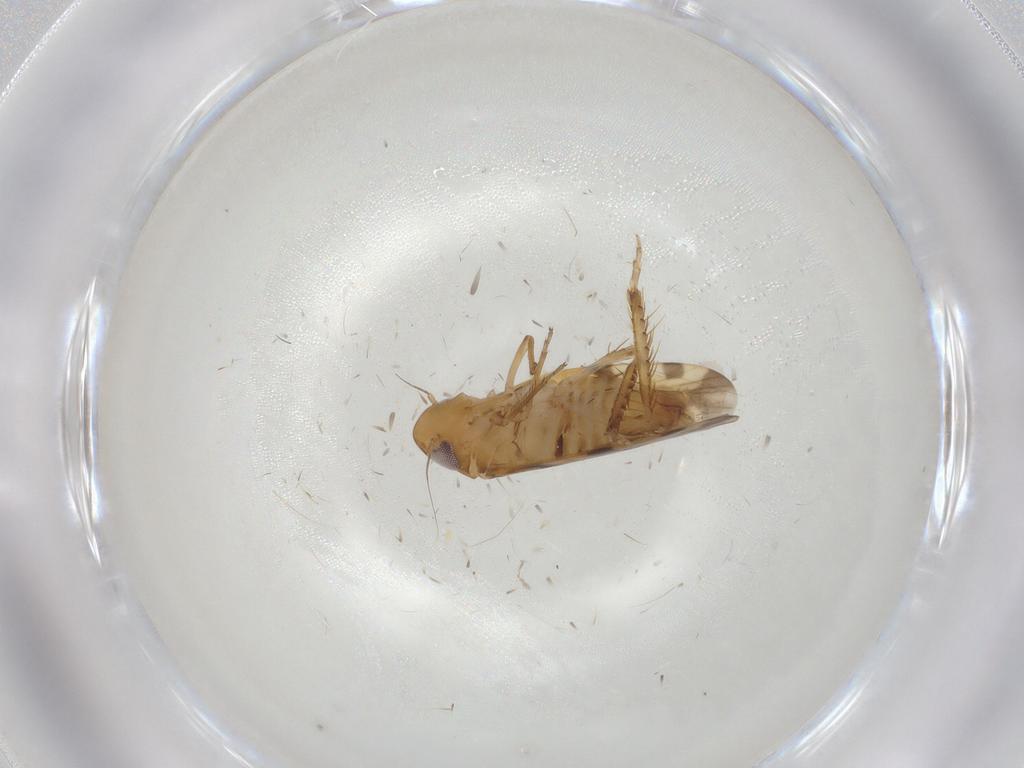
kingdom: Animalia
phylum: Arthropoda
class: Insecta
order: Hemiptera
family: Cicadellidae
